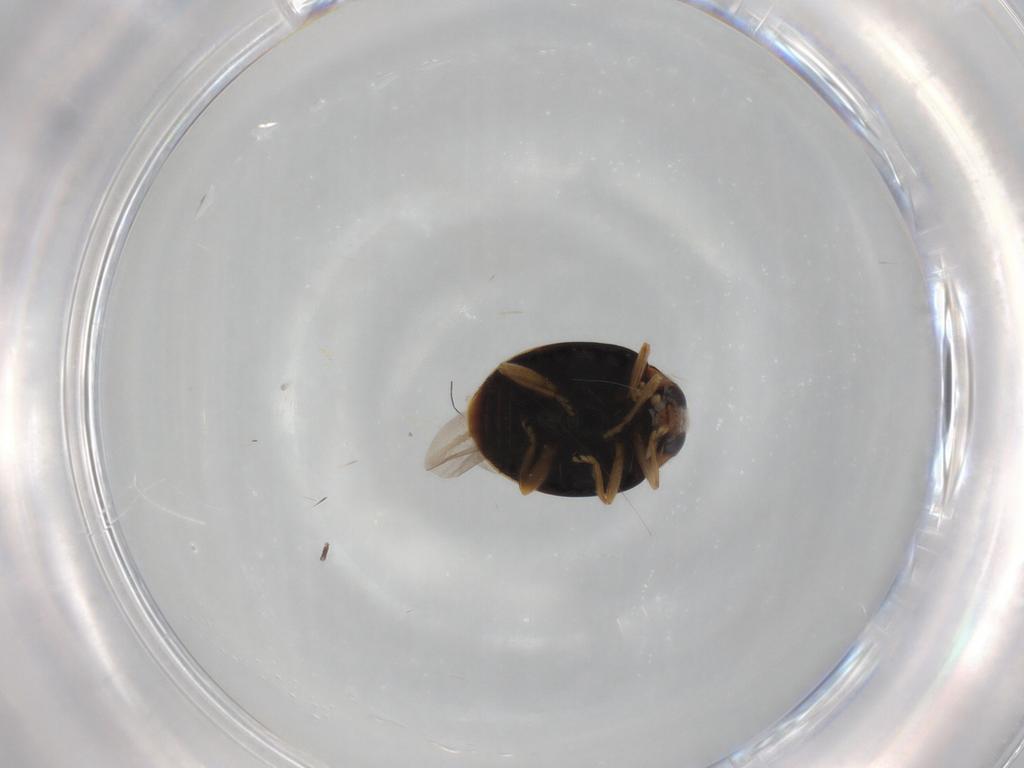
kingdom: Animalia
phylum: Arthropoda
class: Insecta
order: Coleoptera
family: Coccinellidae
